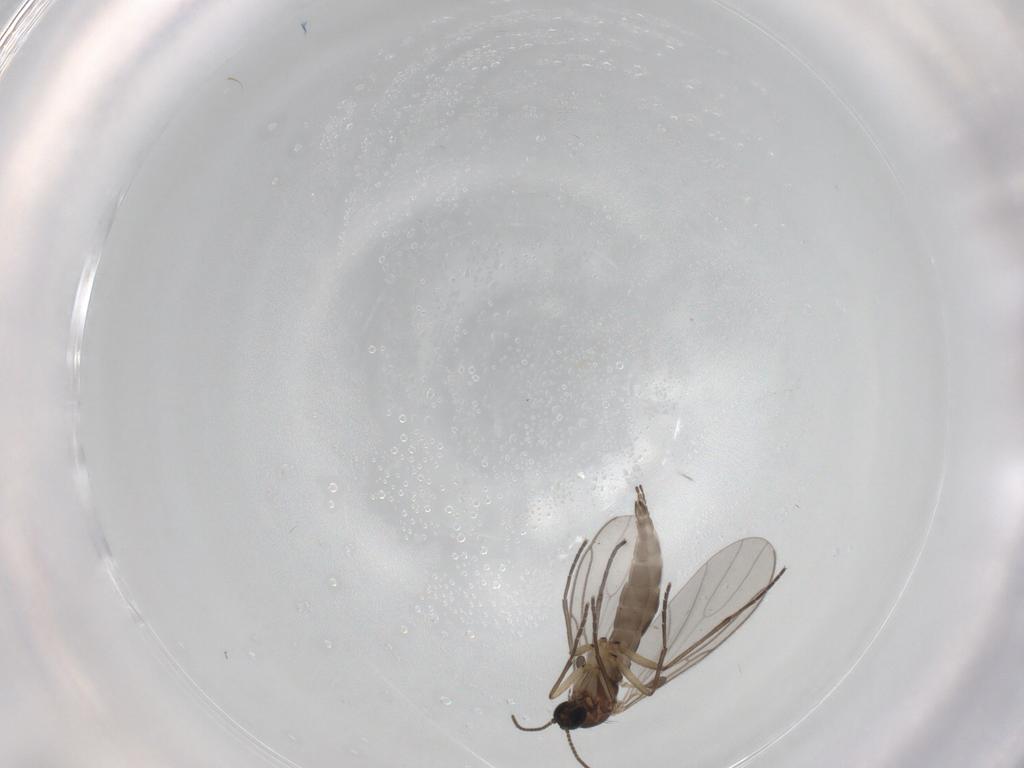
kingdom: Animalia
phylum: Arthropoda
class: Insecta
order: Diptera
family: Sciaridae
